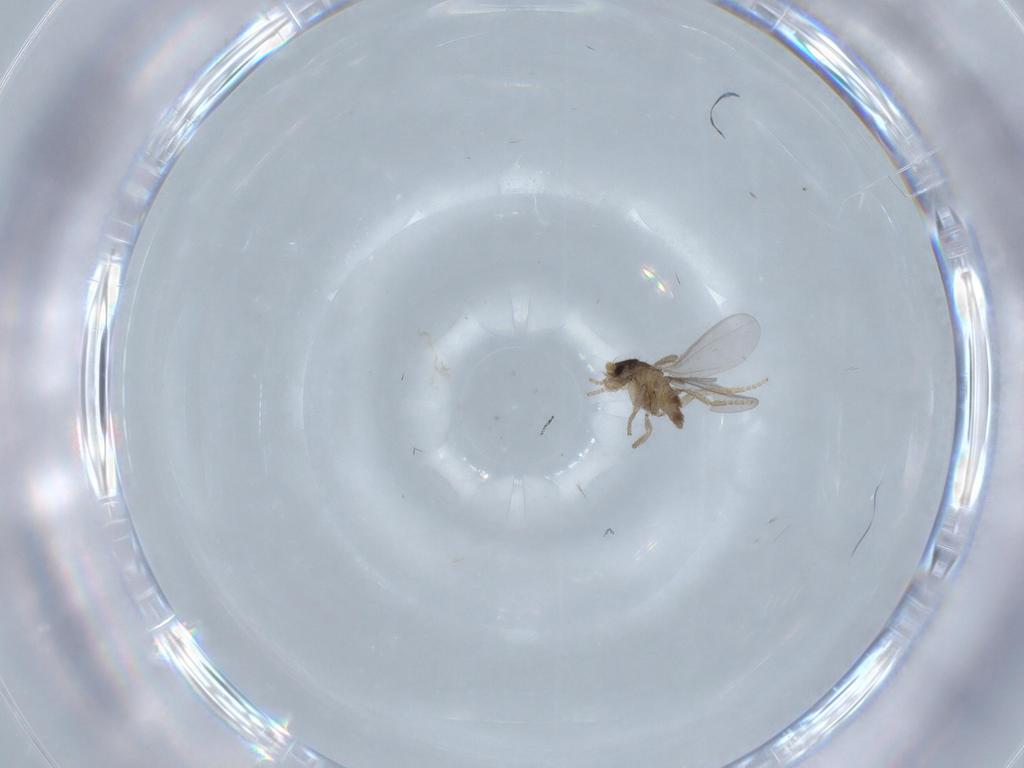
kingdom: Animalia
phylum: Arthropoda
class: Insecta
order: Diptera
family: Phoridae
